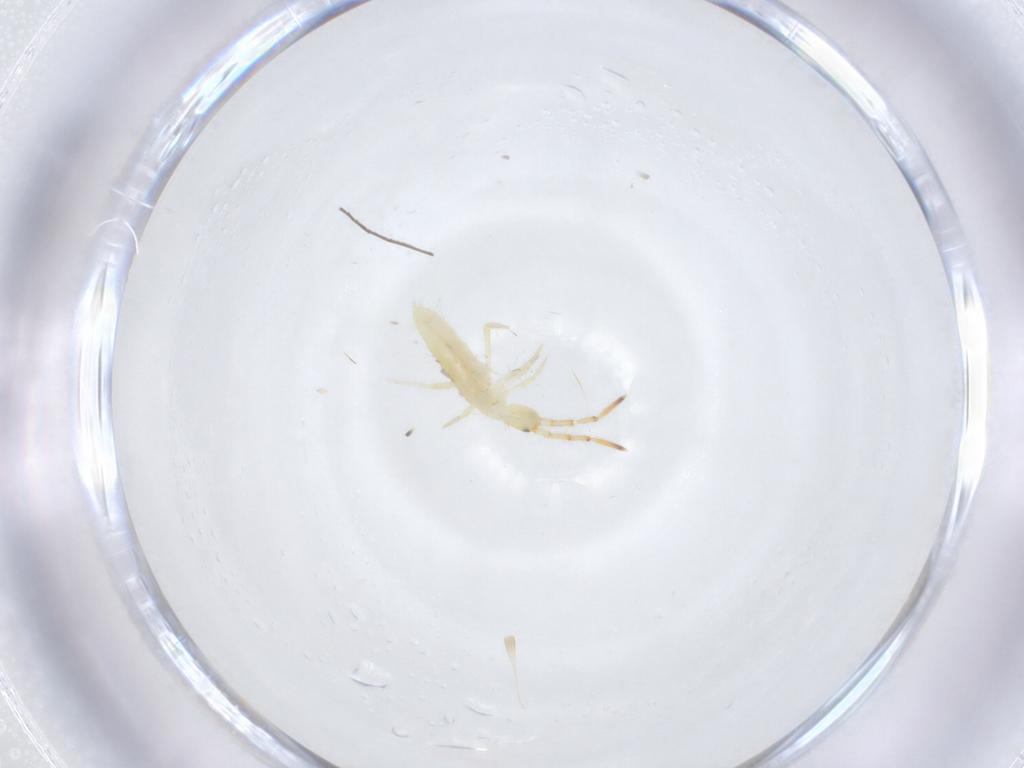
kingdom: Animalia
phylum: Arthropoda
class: Collembola
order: Entomobryomorpha
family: Entomobryidae
